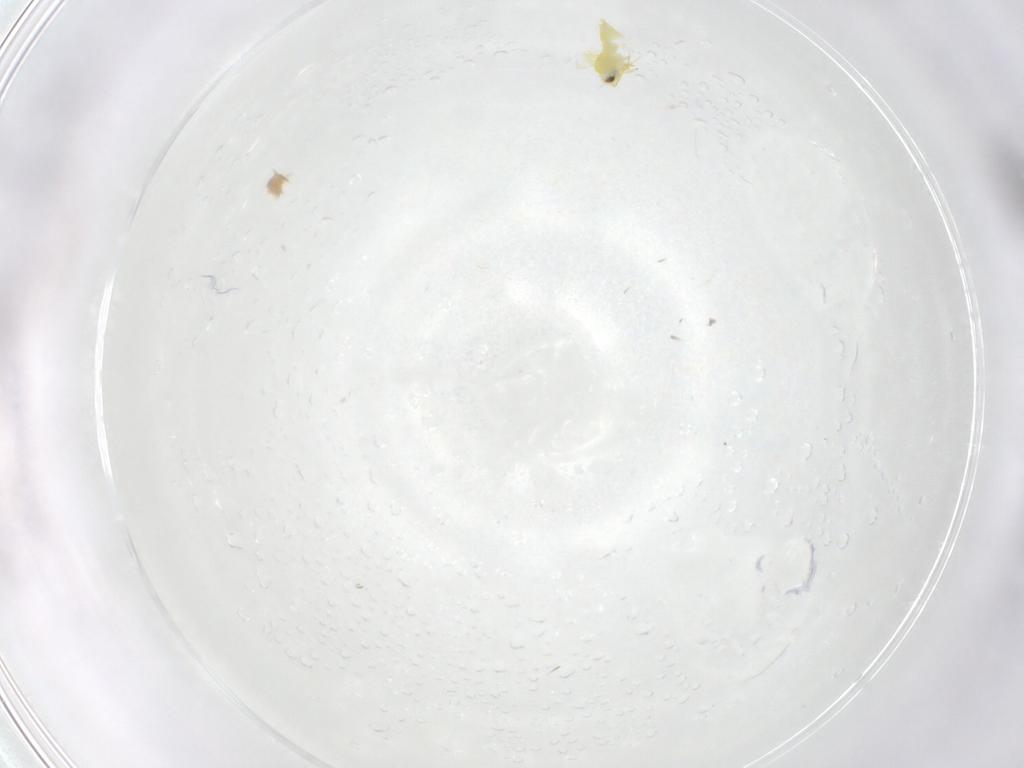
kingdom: Animalia
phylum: Arthropoda
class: Insecta
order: Hemiptera
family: Aleyrodidae
